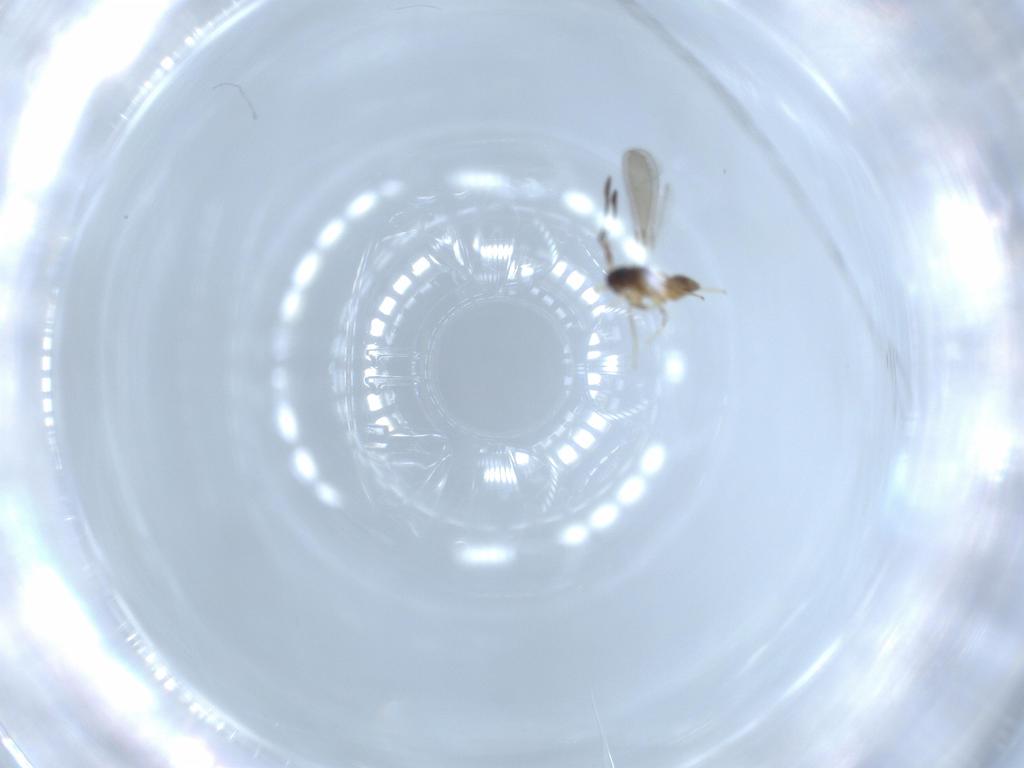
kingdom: Animalia
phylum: Arthropoda
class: Insecta
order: Hymenoptera
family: Mymaridae
